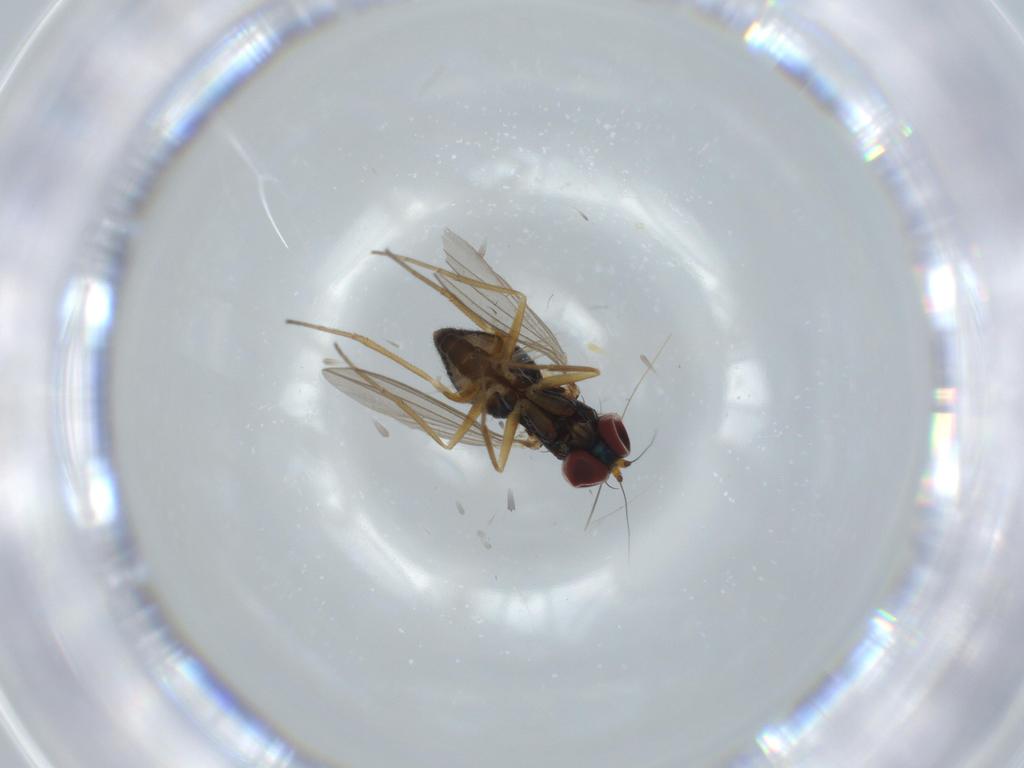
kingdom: Animalia
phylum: Arthropoda
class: Insecta
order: Diptera
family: Dolichopodidae
